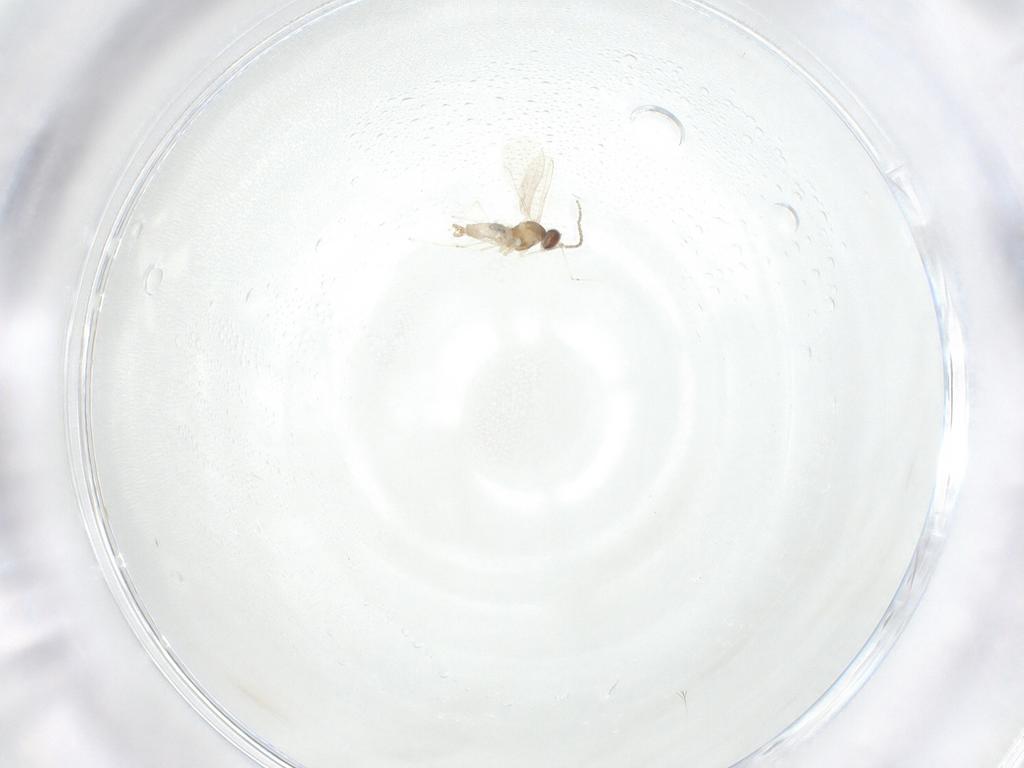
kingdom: Animalia
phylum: Arthropoda
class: Insecta
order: Diptera
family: Cecidomyiidae
